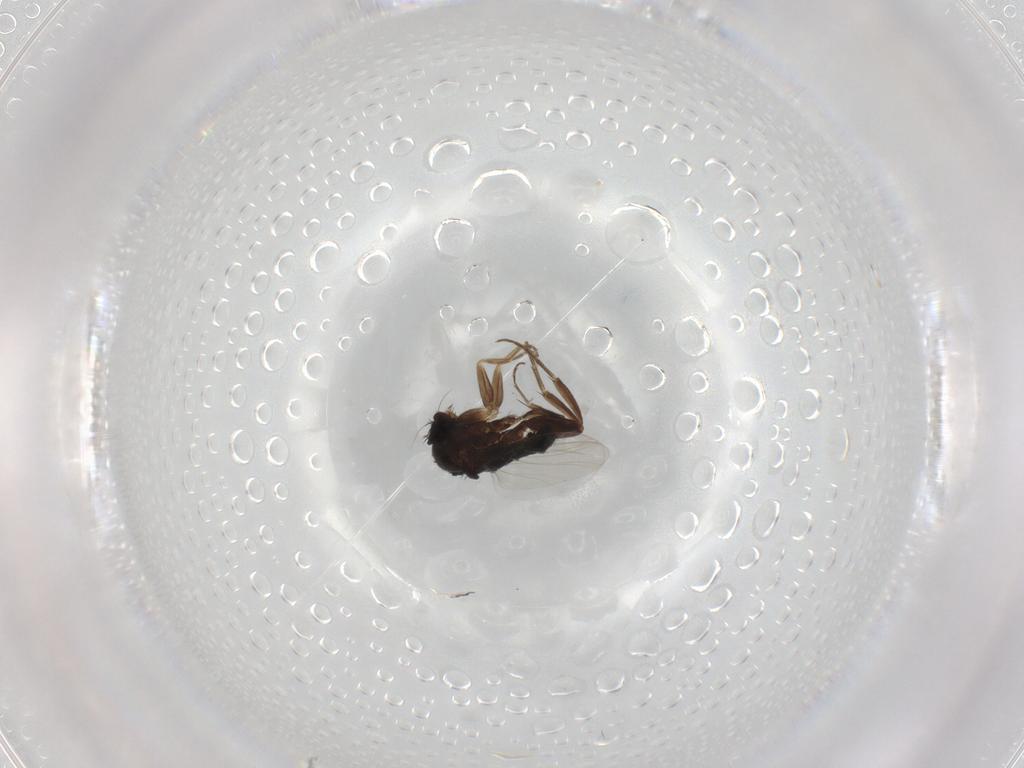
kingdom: Animalia
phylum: Arthropoda
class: Insecta
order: Diptera
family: Phoridae
